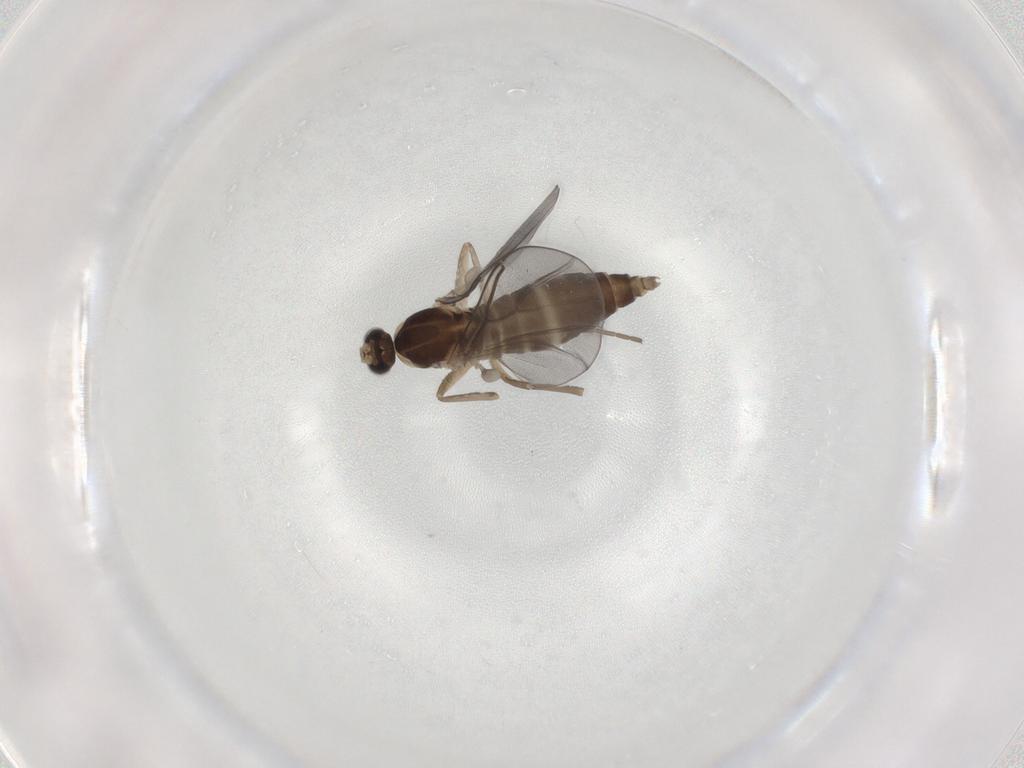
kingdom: Animalia
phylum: Arthropoda
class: Insecta
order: Diptera
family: Cecidomyiidae
